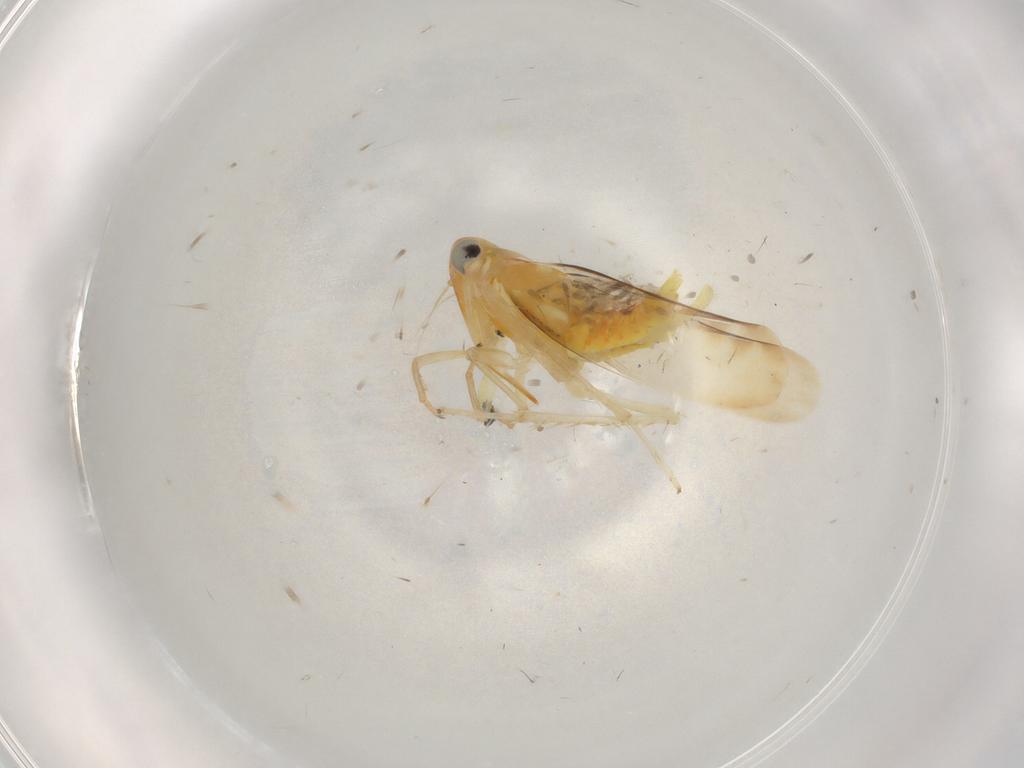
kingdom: Animalia
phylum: Arthropoda
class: Insecta
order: Hemiptera
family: Cicadellidae
